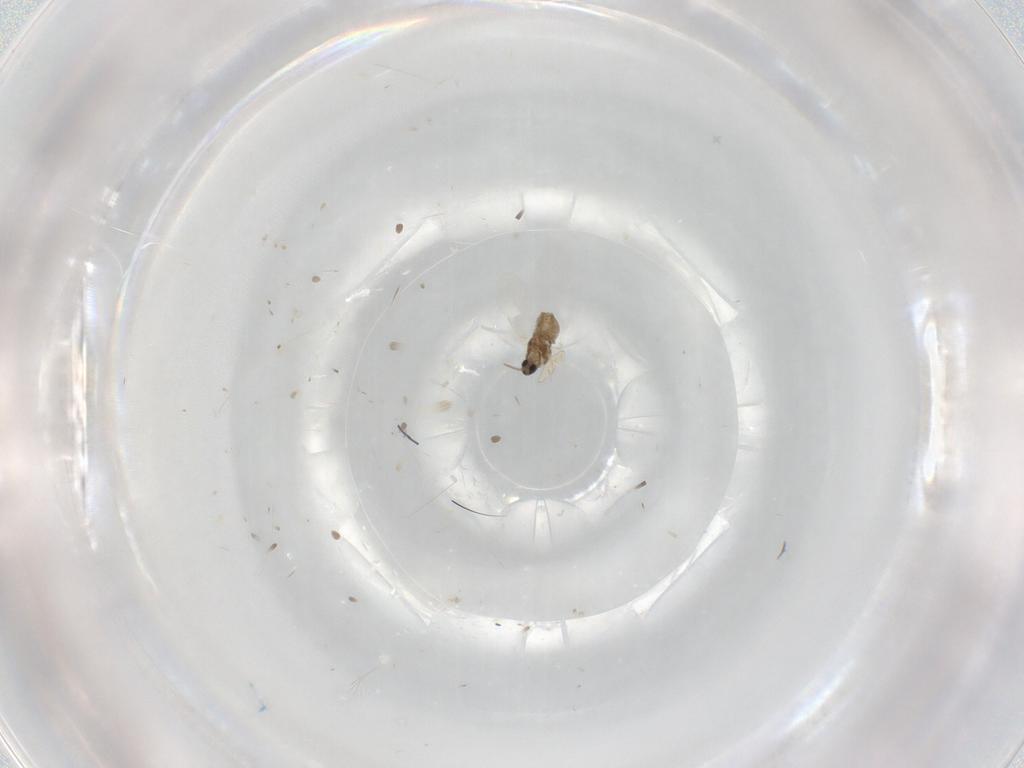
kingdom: Animalia
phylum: Arthropoda
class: Insecta
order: Diptera
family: Cecidomyiidae
